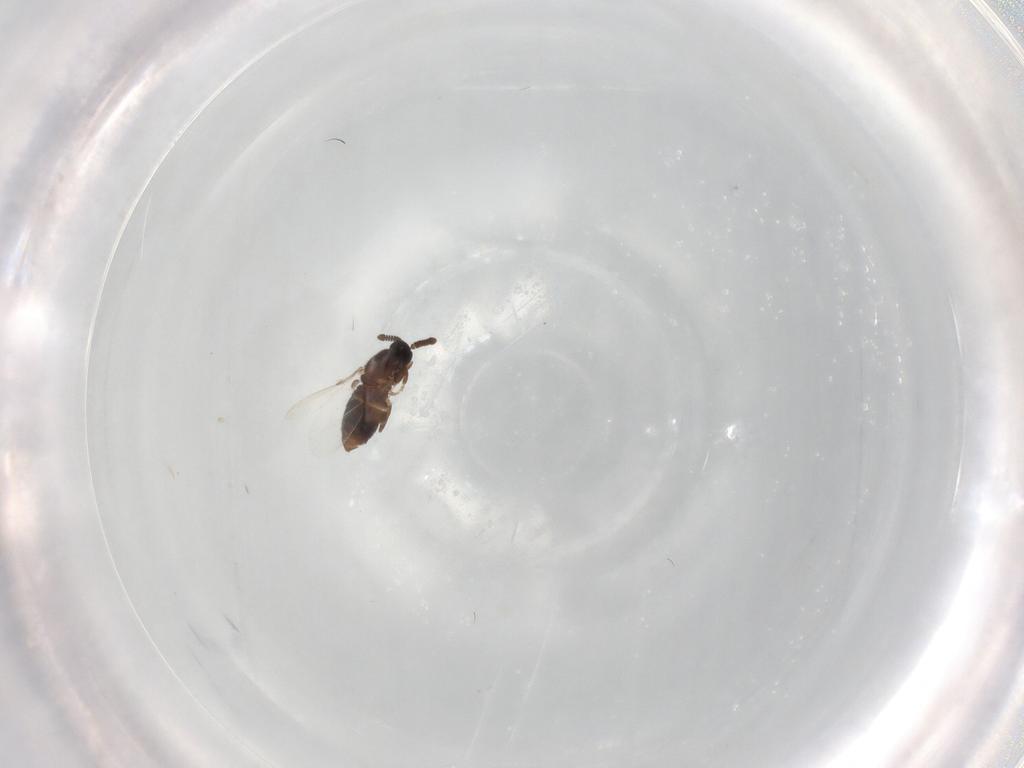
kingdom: Animalia
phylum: Arthropoda
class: Insecta
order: Diptera
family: Scatopsidae
